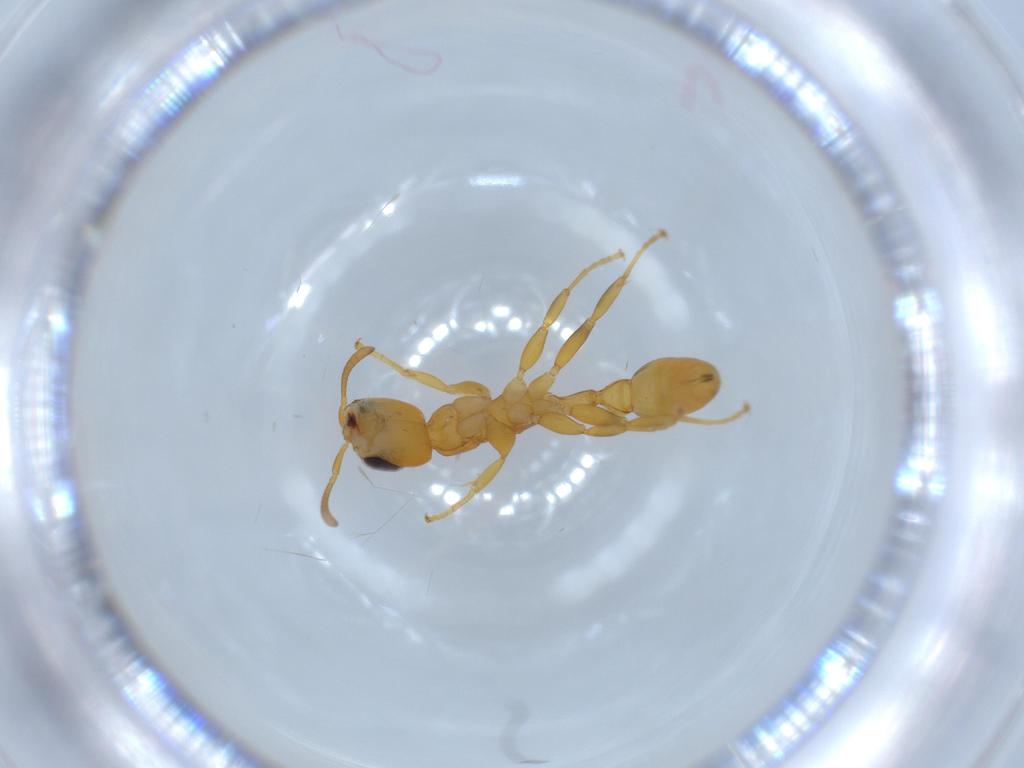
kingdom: Animalia
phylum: Arthropoda
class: Insecta
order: Hymenoptera
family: Formicidae
